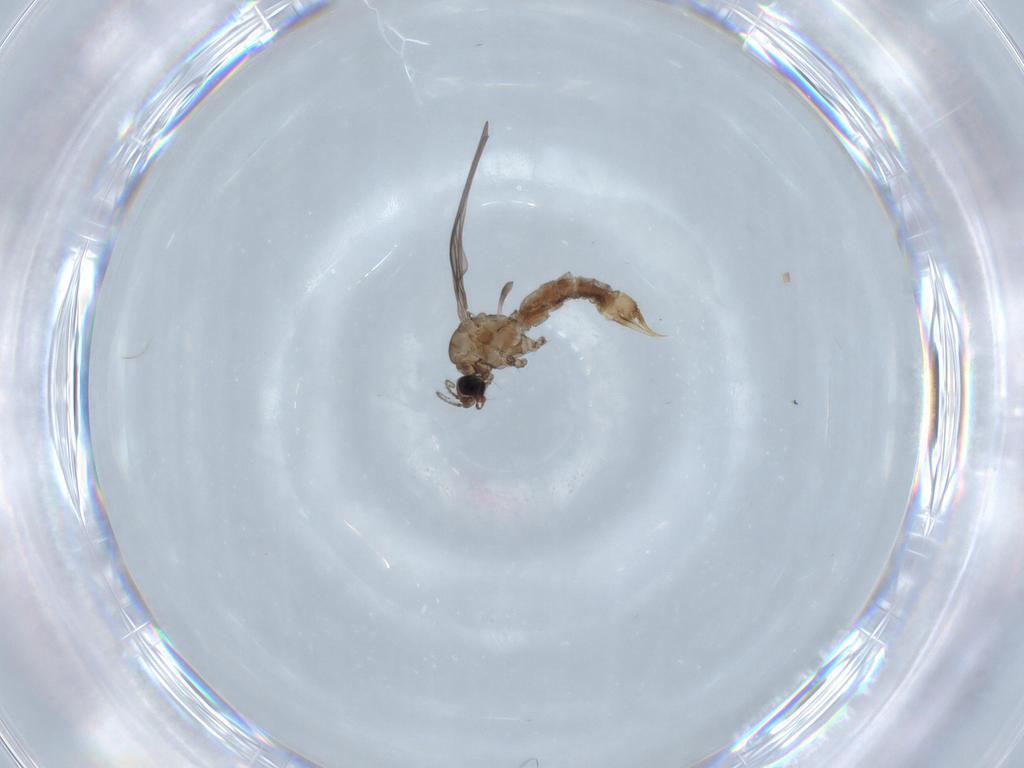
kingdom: Animalia
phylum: Arthropoda
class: Insecta
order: Diptera
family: Limoniidae
